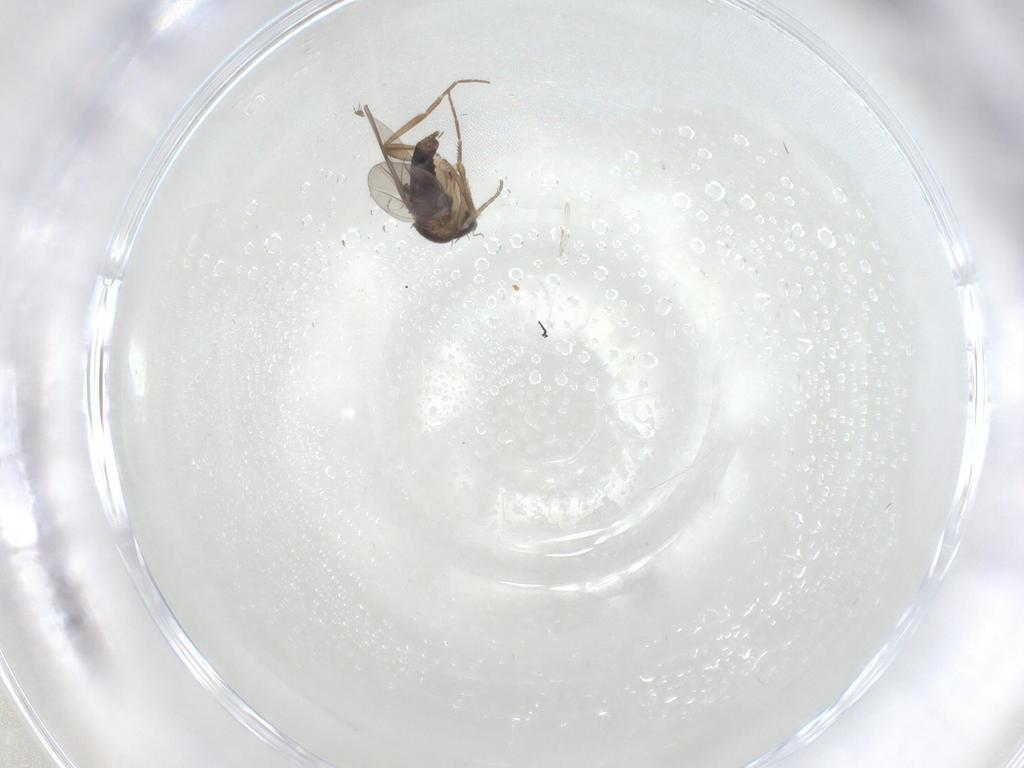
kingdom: Animalia
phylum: Arthropoda
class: Insecta
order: Diptera
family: Cecidomyiidae
